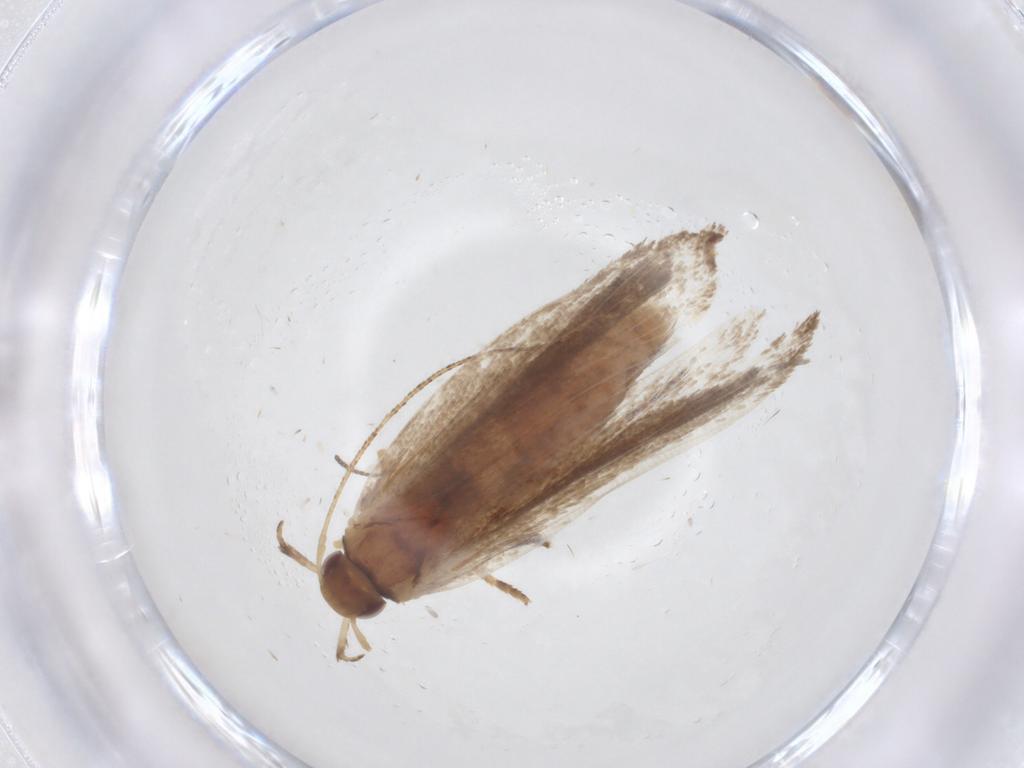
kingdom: Animalia
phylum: Arthropoda
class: Insecta
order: Lepidoptera
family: Gelechiidae
